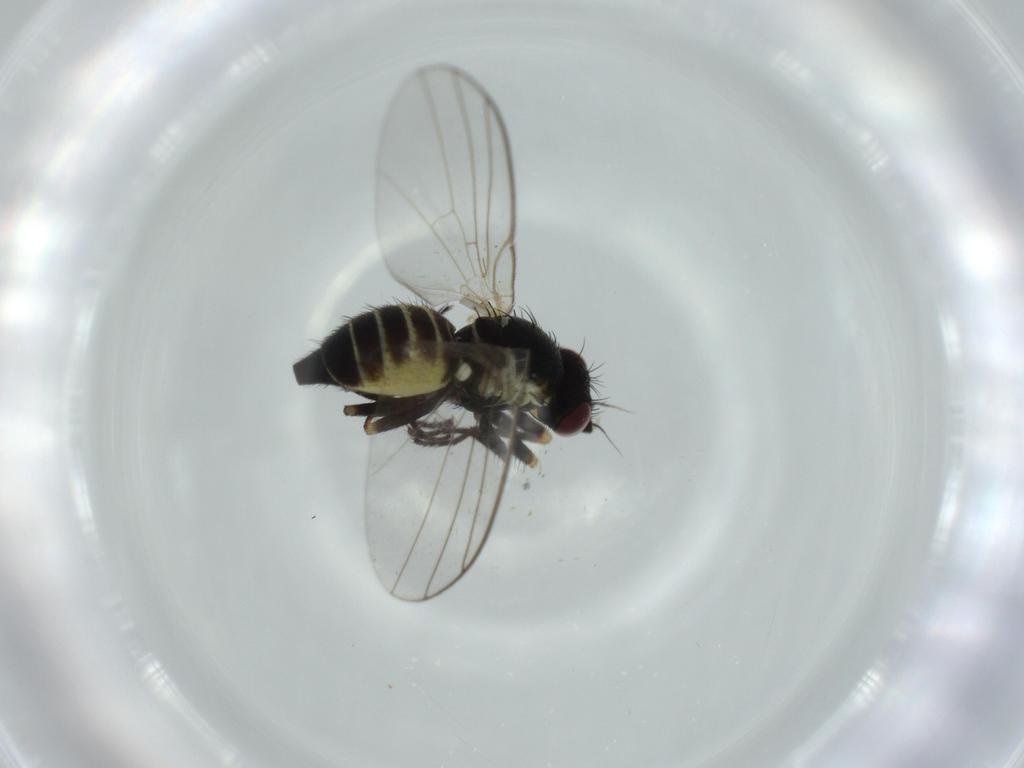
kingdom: Animalia
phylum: Arthropoda
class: Insecta
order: Diptera
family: Chironomidae
